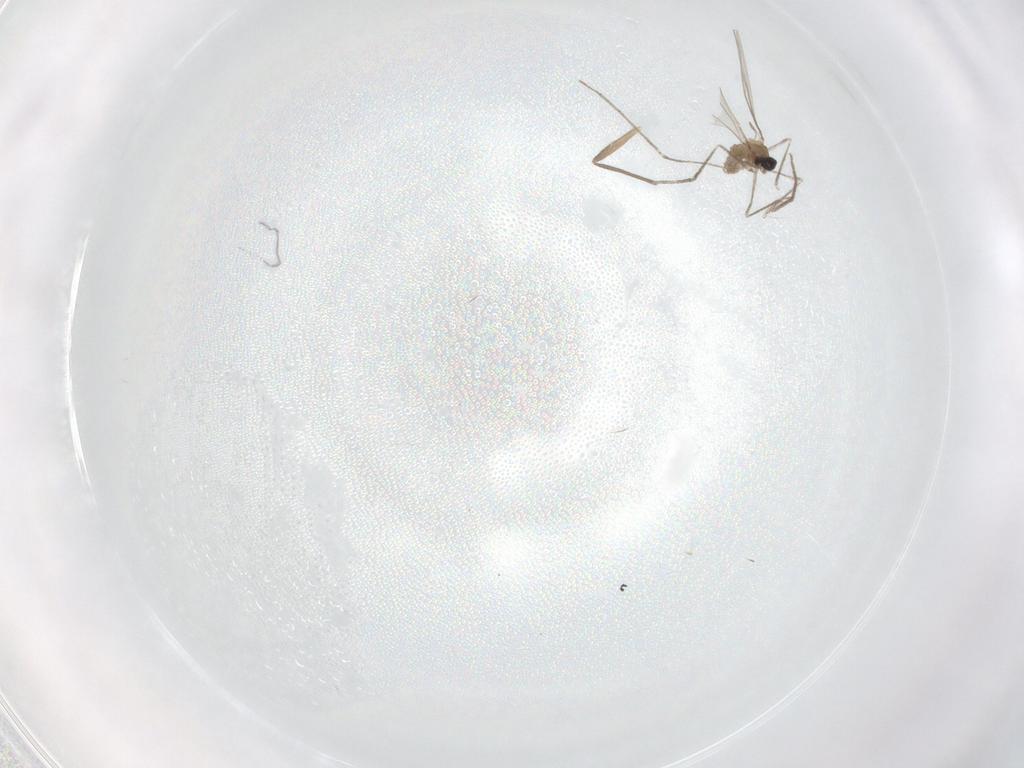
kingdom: Animalia
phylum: Arthropoda
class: Insecta
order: Diptera
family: Cecidomyiidae
